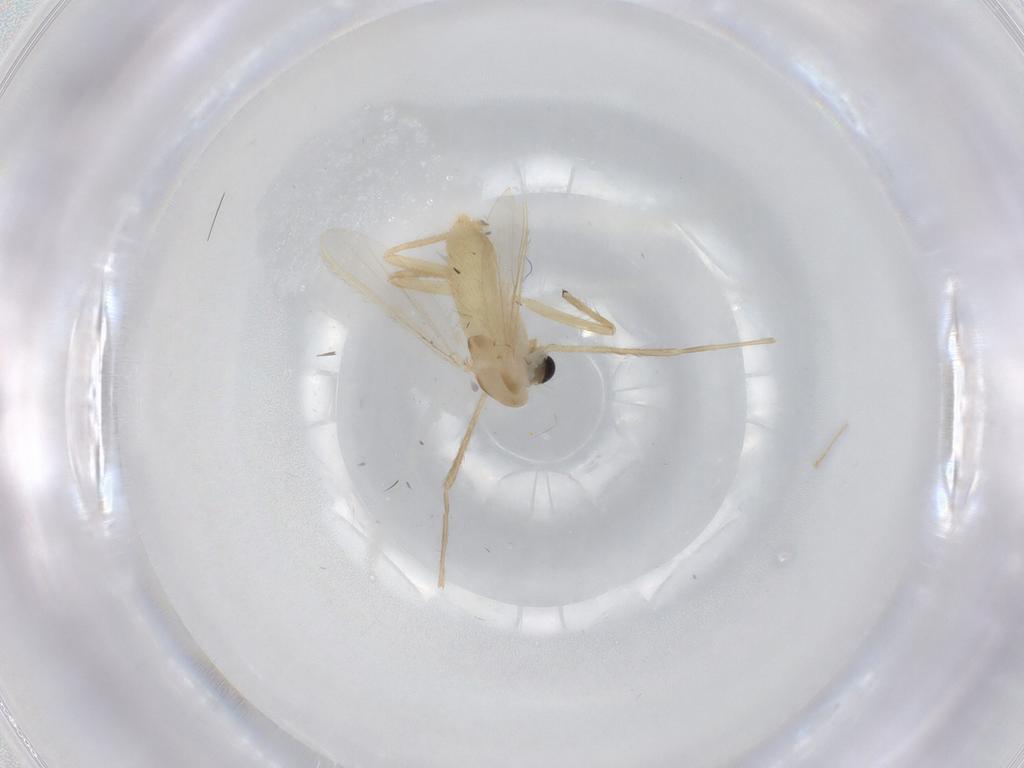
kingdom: Animalia
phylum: Arthropoda
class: Insecta
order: Diptera
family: Chironomidae
